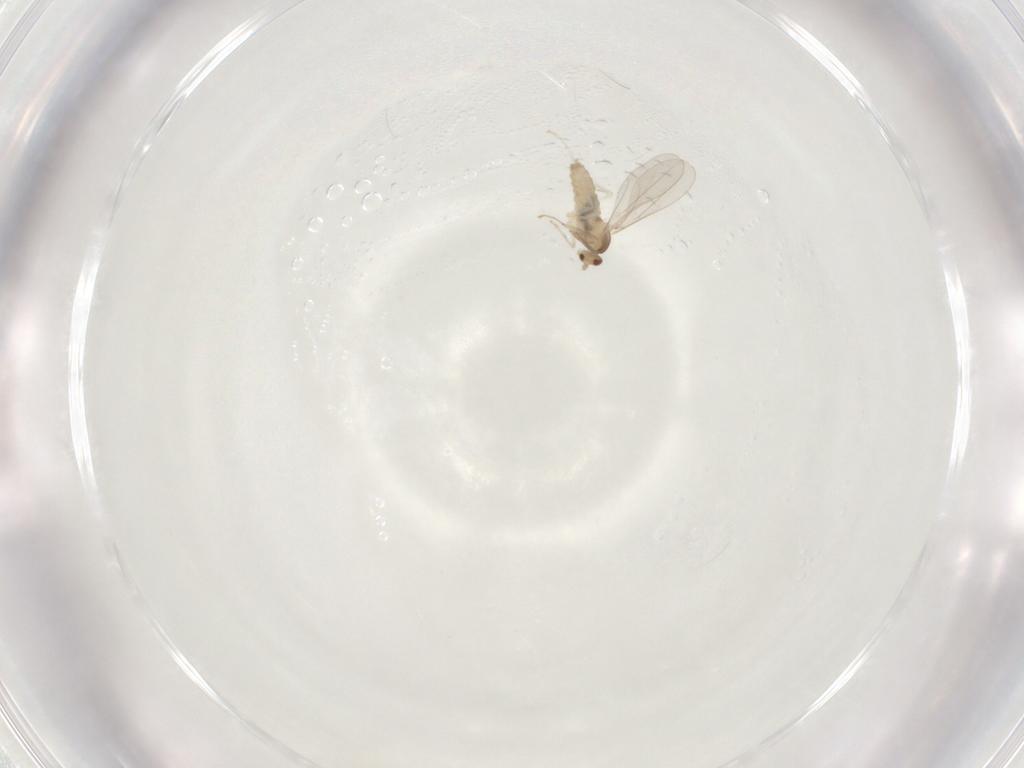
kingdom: Animalia
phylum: Arthropoda
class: Insecta
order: Diptera
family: Cecidomyiidae
